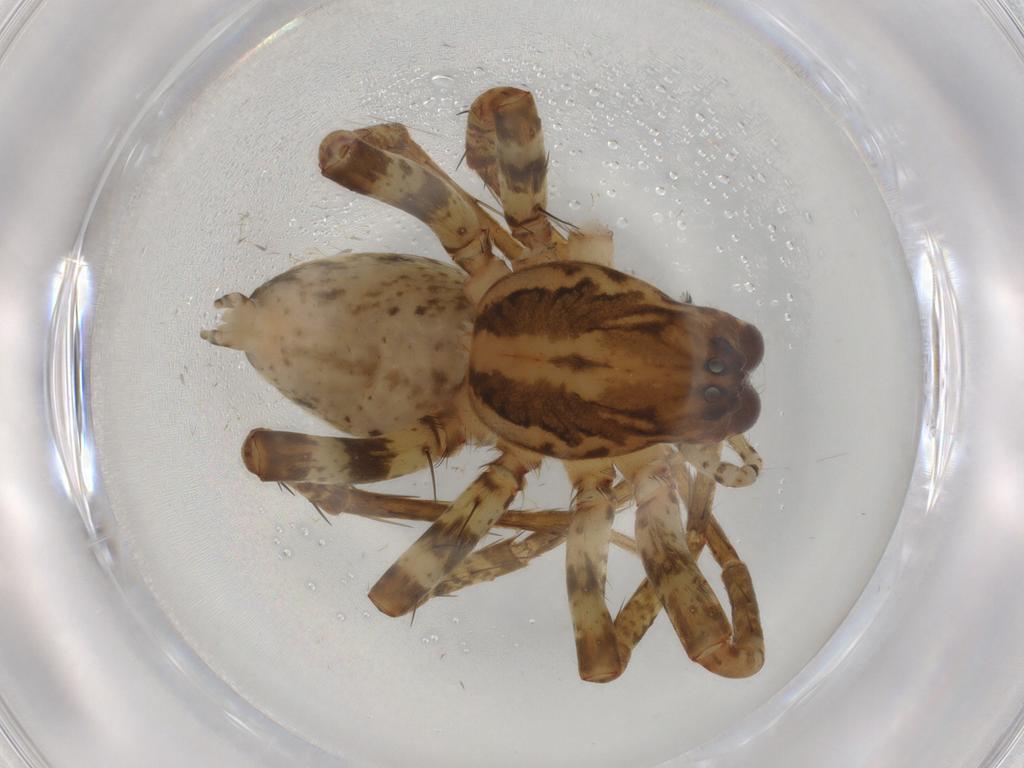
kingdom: Animalia
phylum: Arthropoda
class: Arachnida
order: Araneae
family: Anyphaenidae
